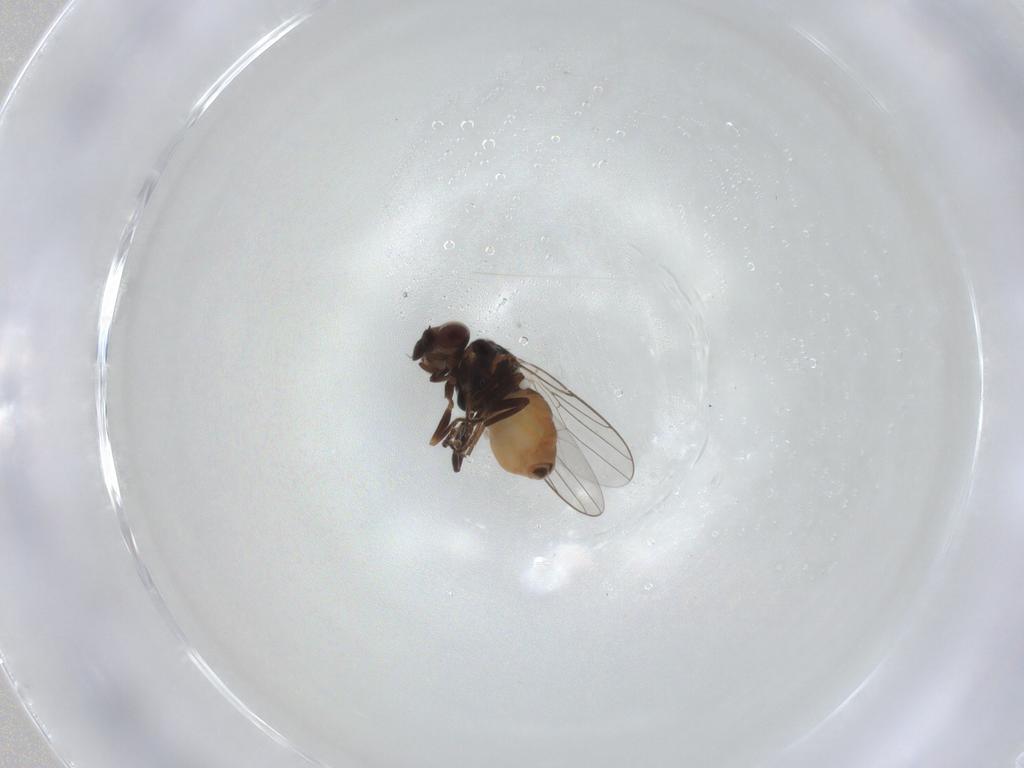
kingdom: Animalia
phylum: Arthropoda
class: Insecta
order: Diptera
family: Chloropidae
